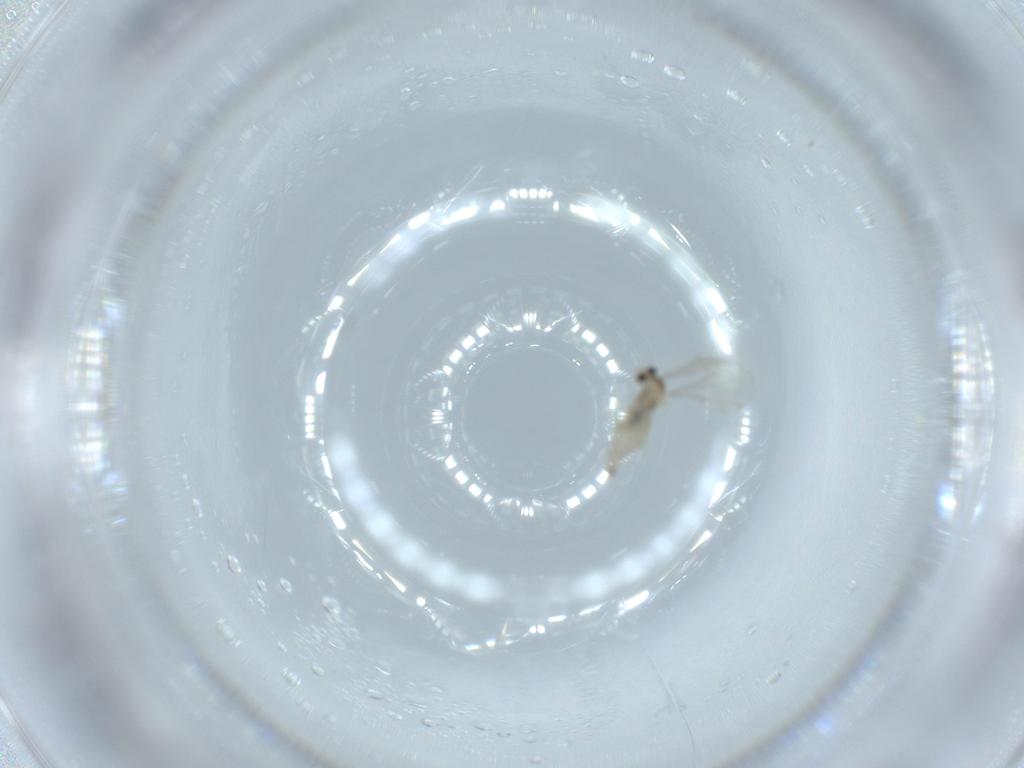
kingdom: Animalia
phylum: Arthropoda
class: Insecta
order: Diptera
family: Cecidomyiidae
